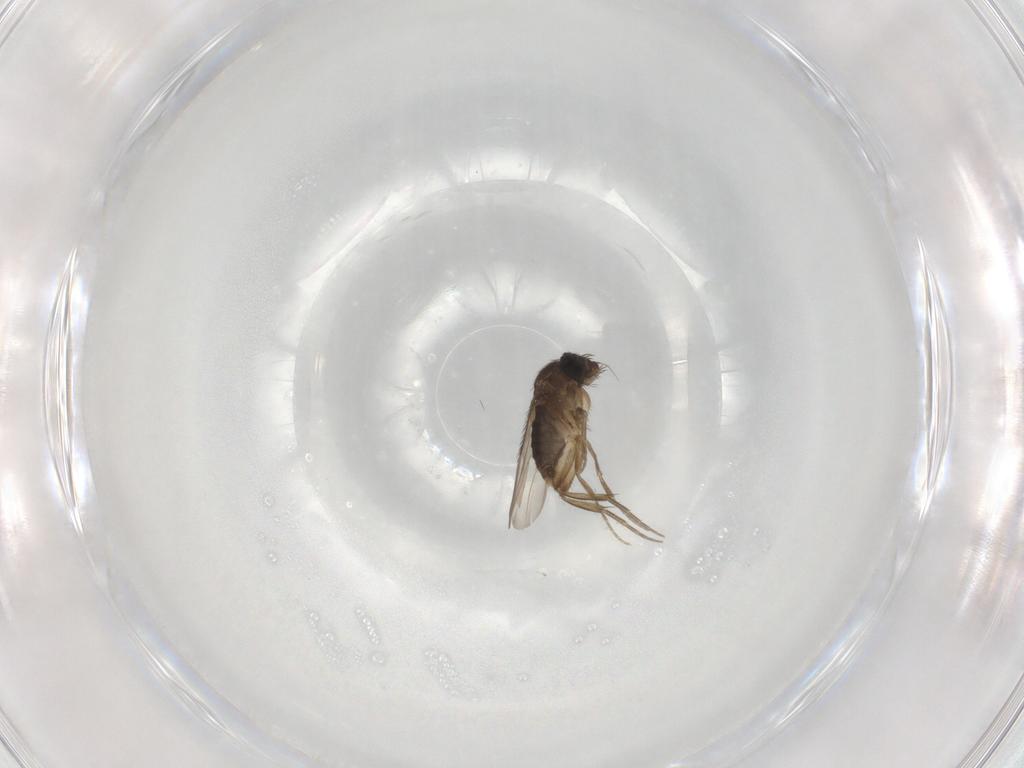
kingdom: Animalia
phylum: Arthropoda
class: Insecta
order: Diptera
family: Phoridae
